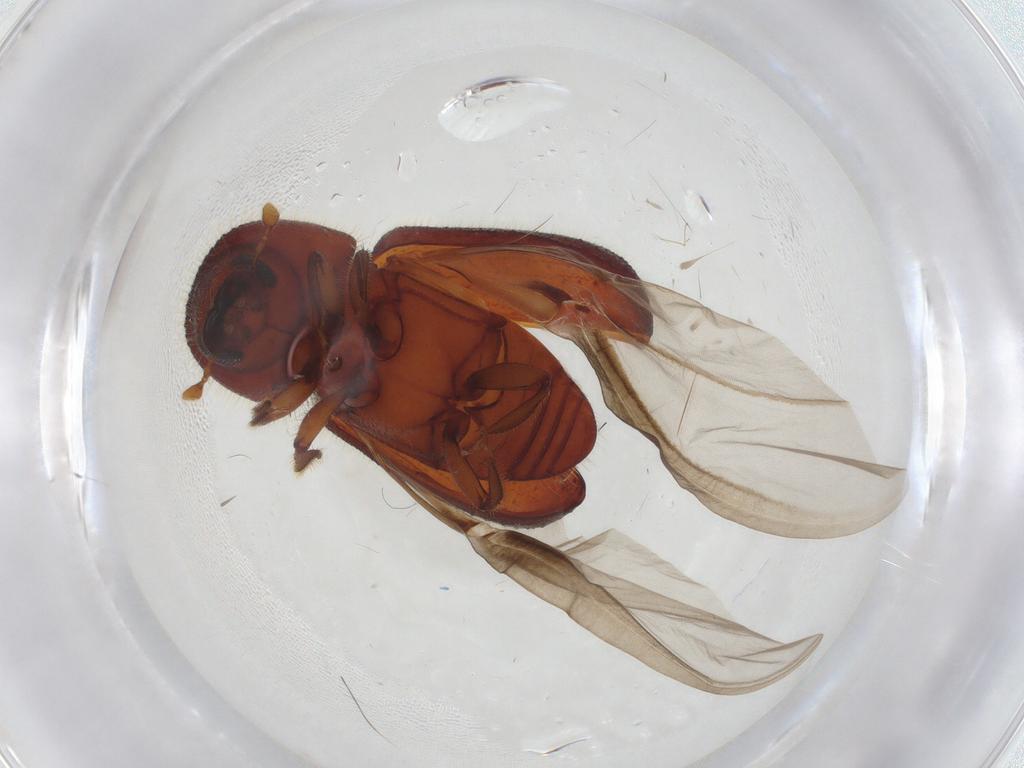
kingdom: Animalia
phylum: Arthropoda
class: Insecta
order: Coleoptera
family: Curculionidae
